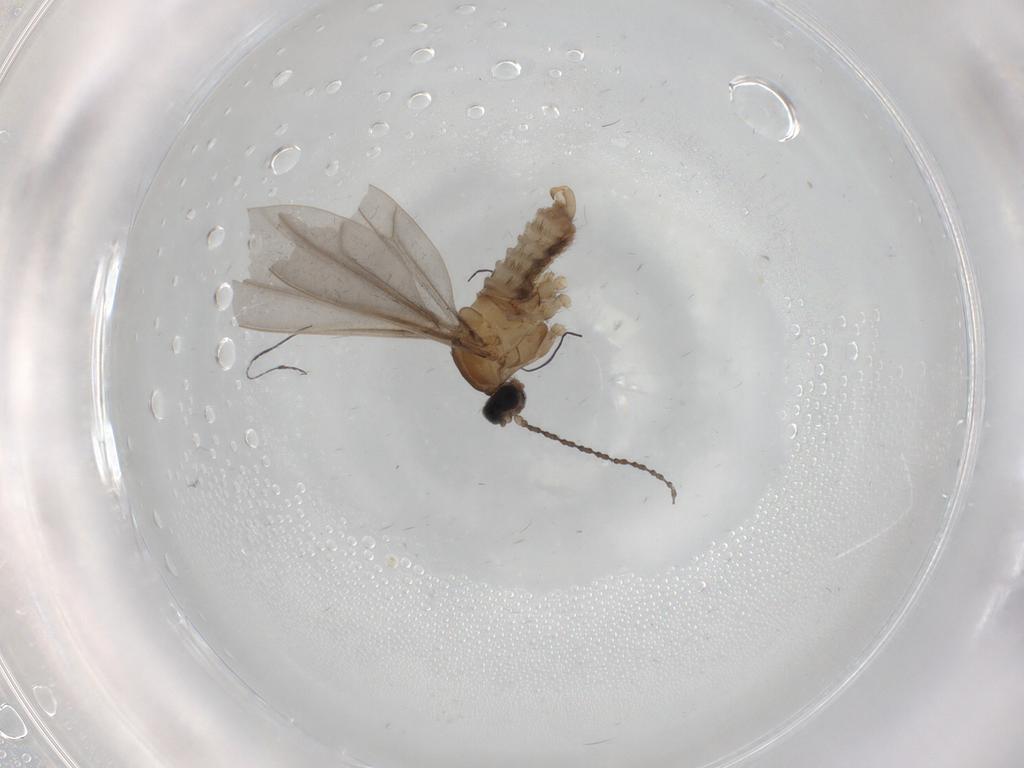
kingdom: Animalia
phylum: Arthropoda
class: Insecta
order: Diptera
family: Cecidomyiidae
